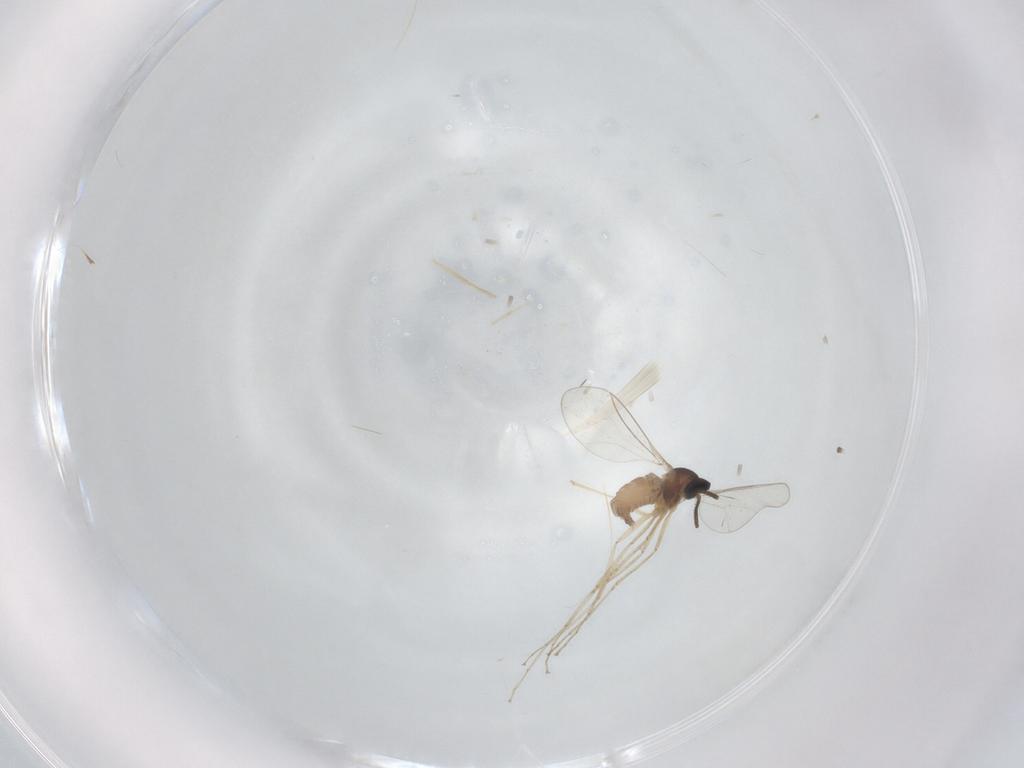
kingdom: Animalia
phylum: Arthropoda
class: Insecta
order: Diptera
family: Cecidomyiidae
